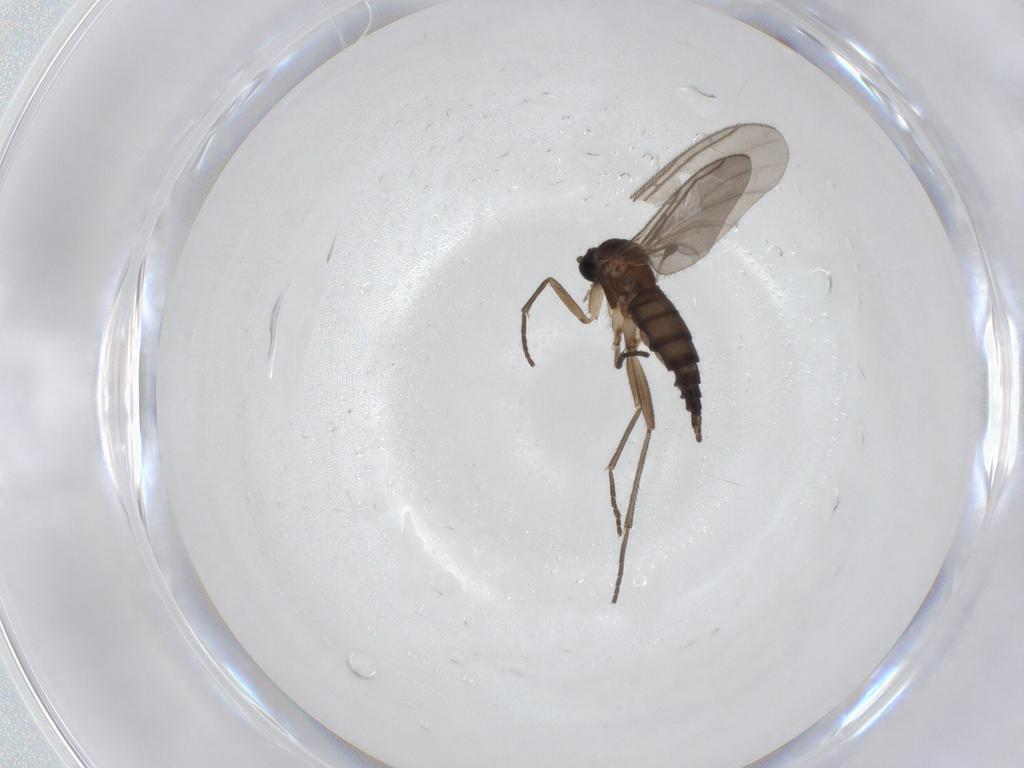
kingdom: Animalia
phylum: Arthropoda
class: Insecta
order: Diptera
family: Sciaridae
